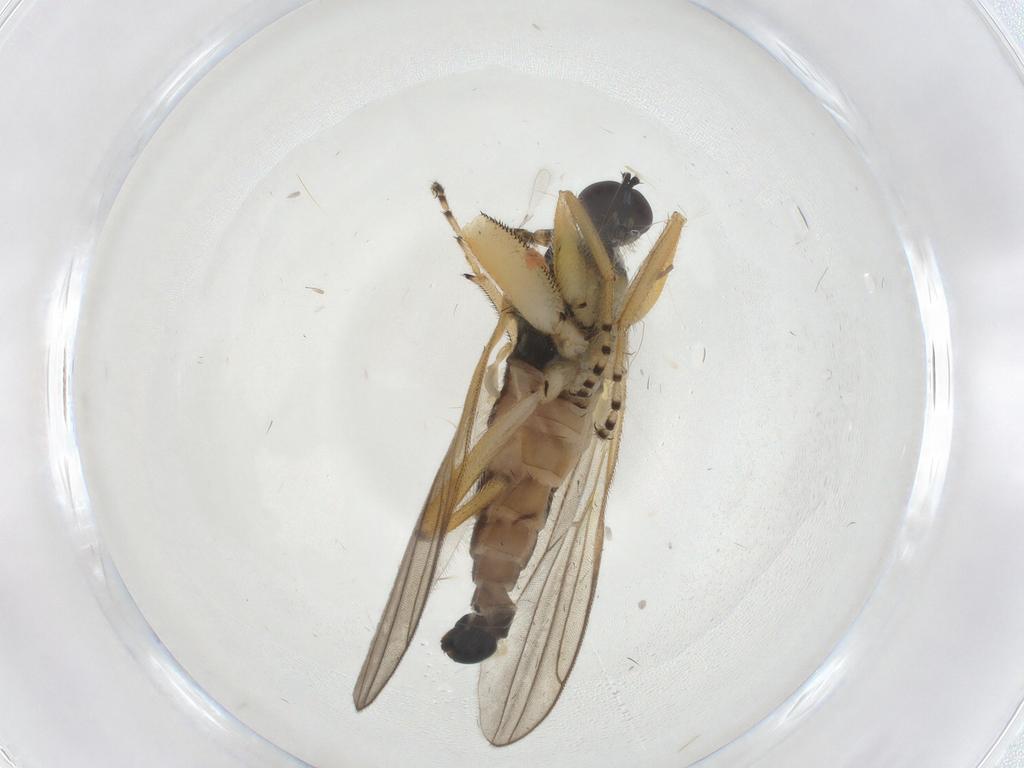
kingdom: Animalia
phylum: Arthropoda
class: Insecta
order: Diptera
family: Hybotidae
